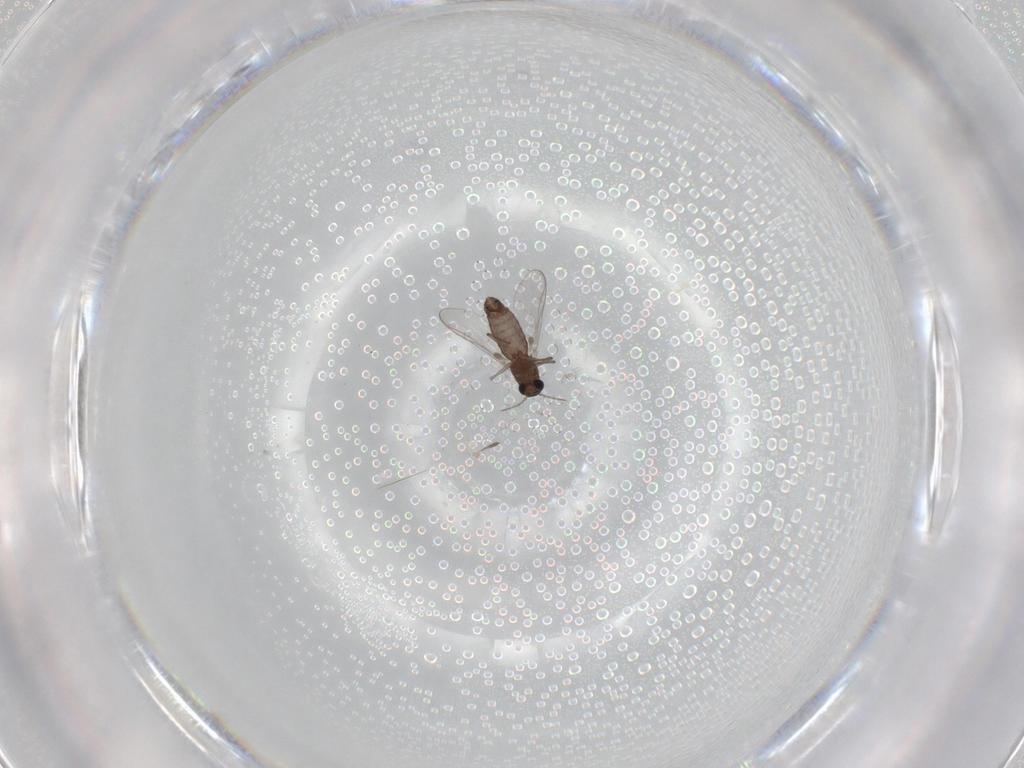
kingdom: Animalia
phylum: Arthropoda
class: Insecta
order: Diptera
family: Chironomidae
